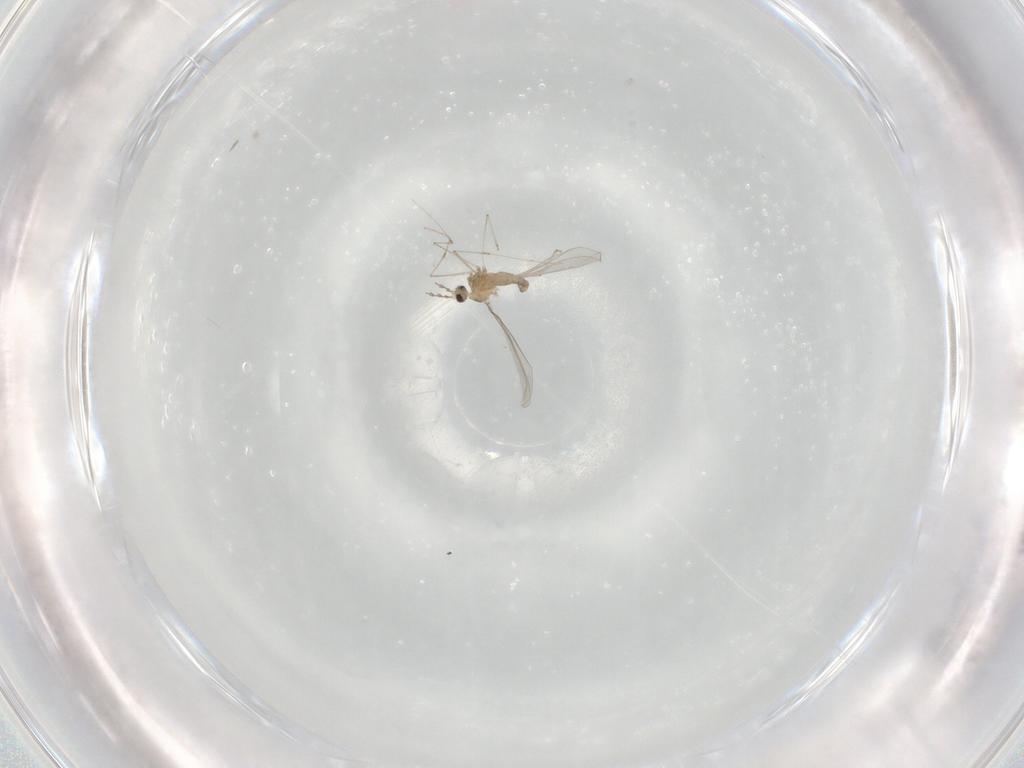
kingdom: Animalia
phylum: Arthropoda
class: Insecta
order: Diptera
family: Cecidomyiidae
